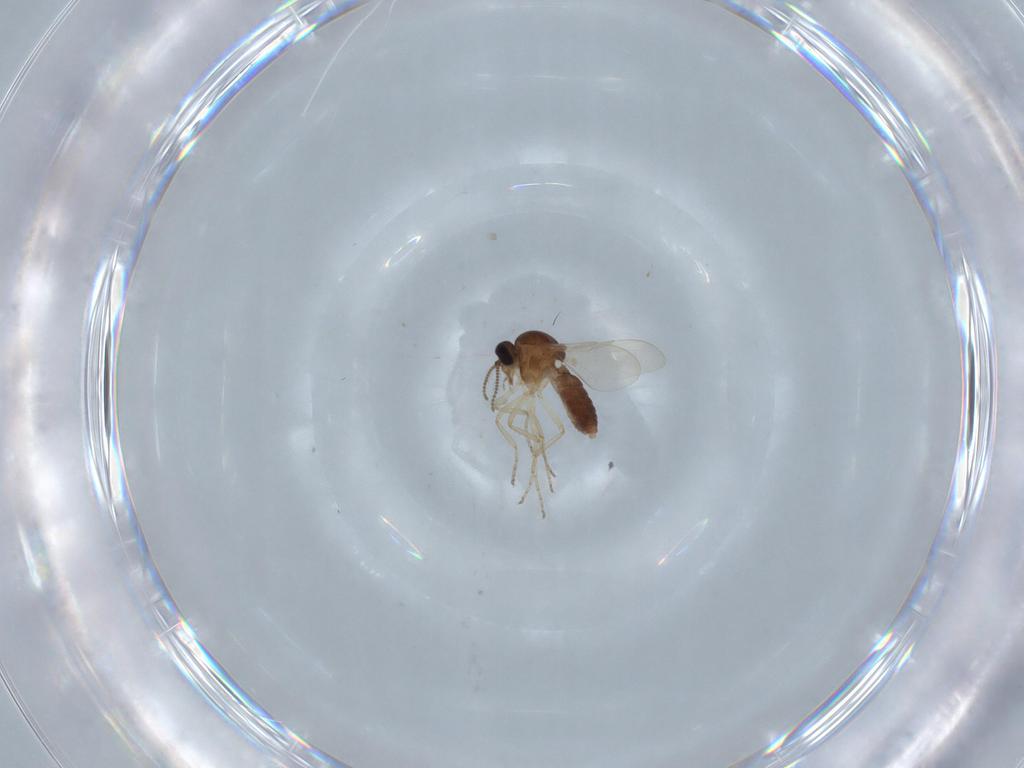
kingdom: Animalia
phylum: Arthropoda
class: Insecta
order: Diptera
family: Ceratopogonidae
